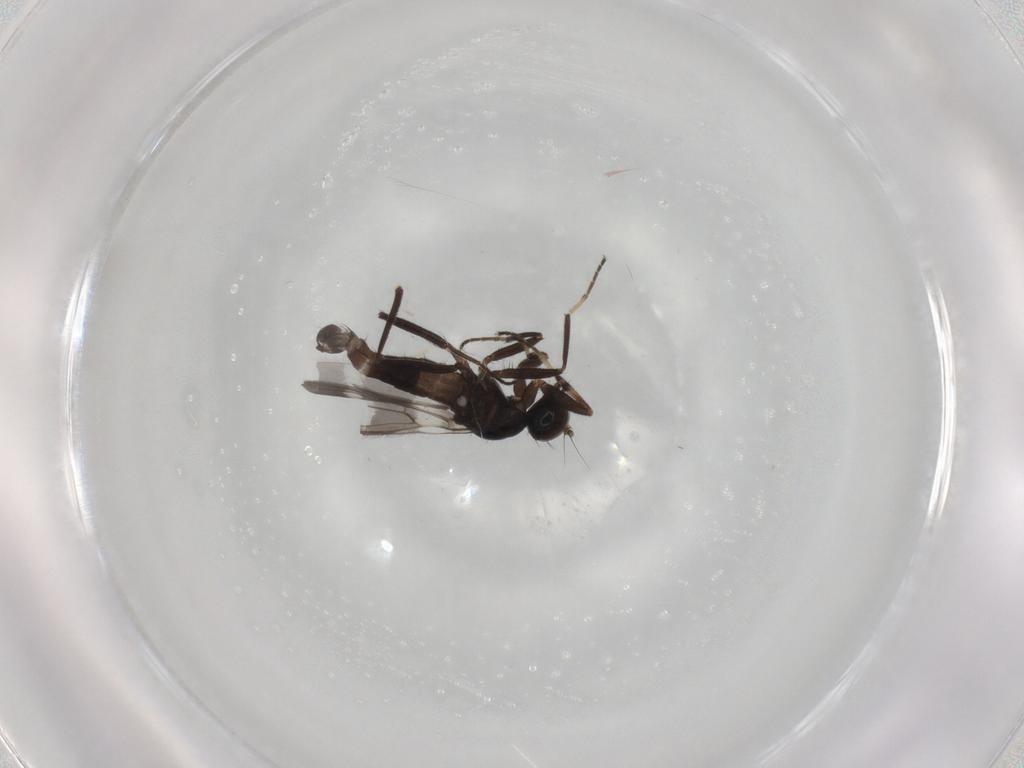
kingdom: Animalia
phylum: Arthropoda
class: Insecta
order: Diptera
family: Hybotidae
